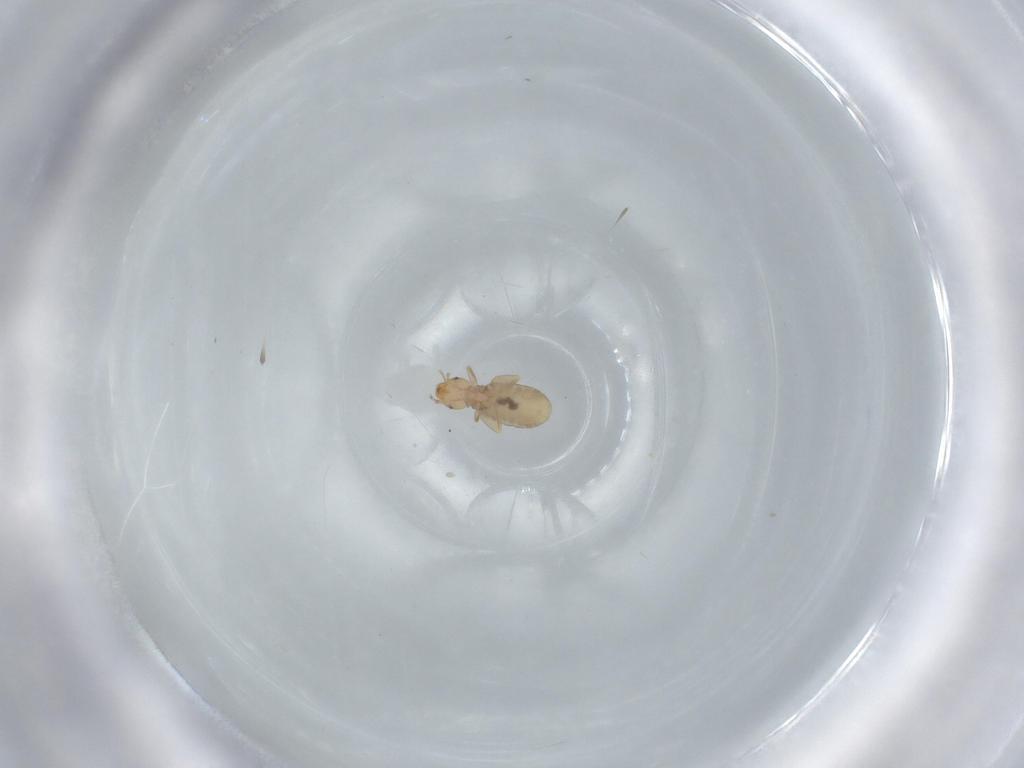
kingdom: Animalia
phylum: Arthropoda
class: Insecta
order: Psocodea
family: Liposcelididae
